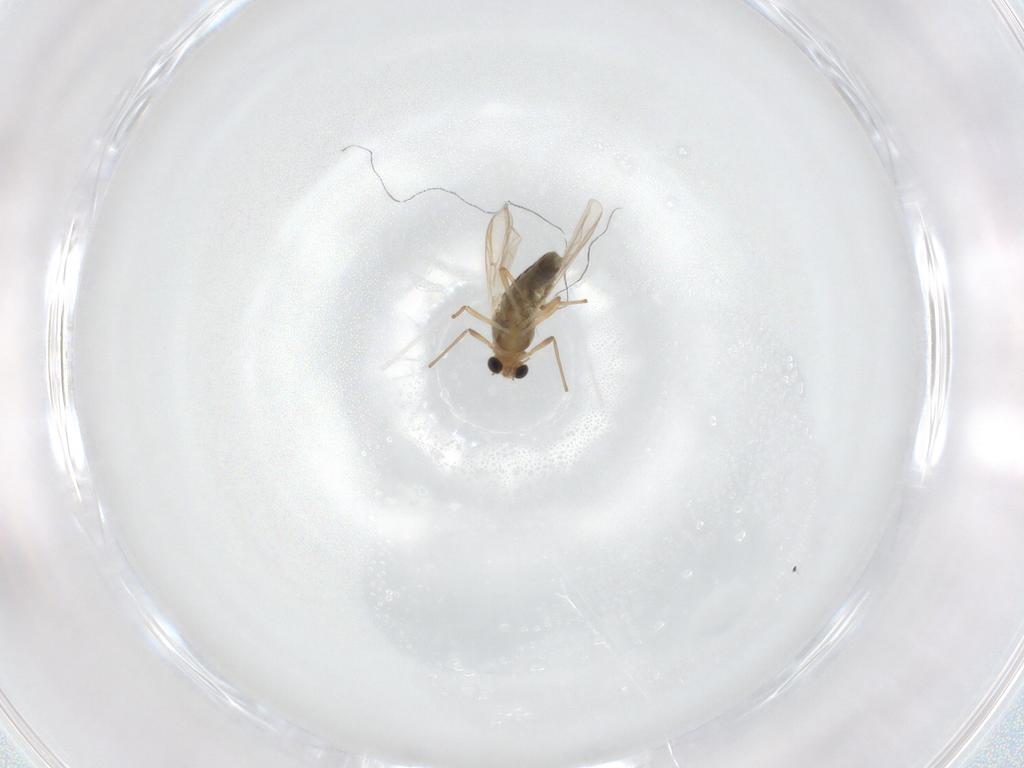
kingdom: Animalia
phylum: Arthropoda
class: Insecta
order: Diptera
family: Chironomidae
